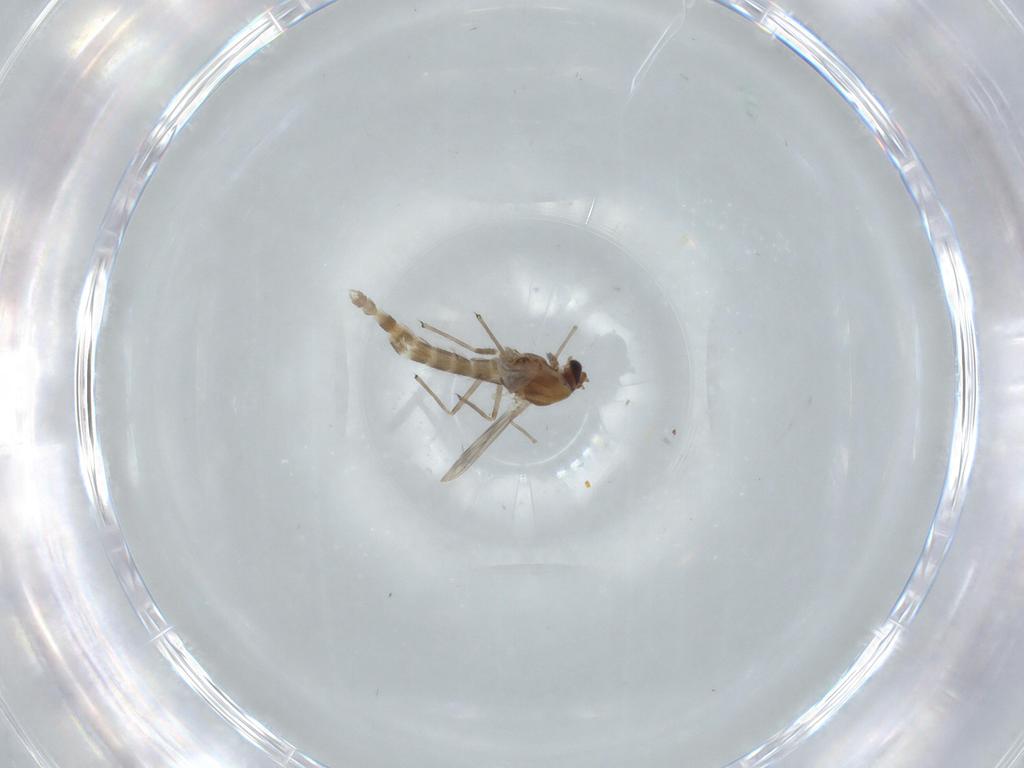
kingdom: Animalia
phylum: Arthropoda
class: Insecta
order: Diptera
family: Chironomidae
